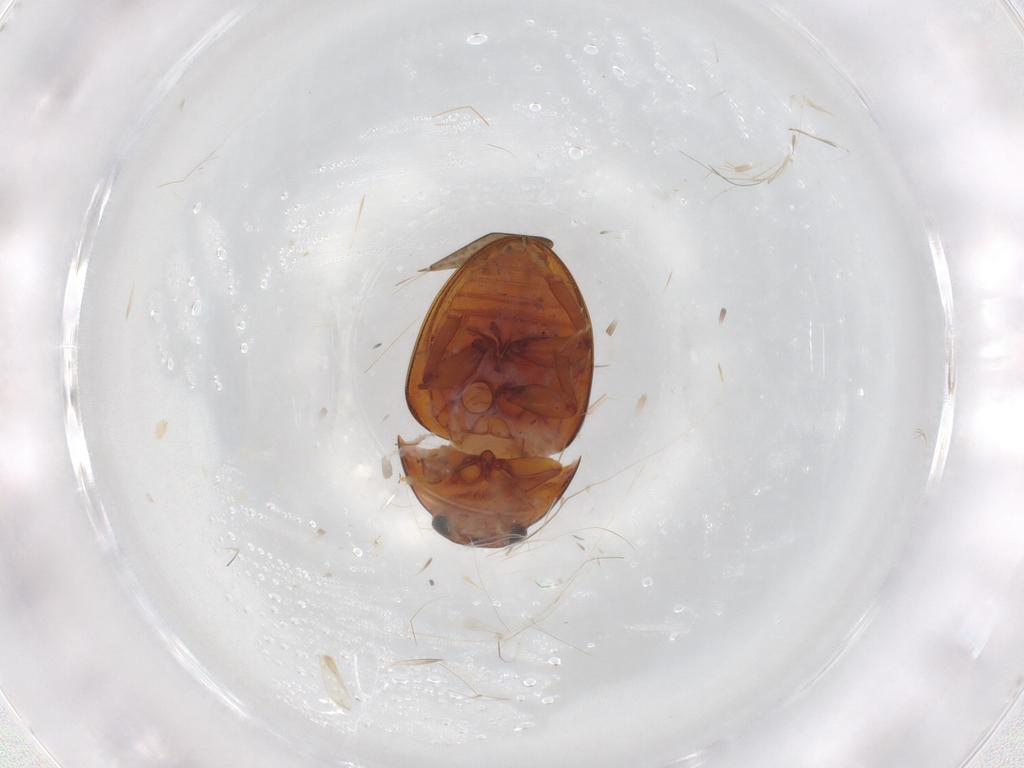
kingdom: Animalia
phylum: Arthropoda
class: Insecta
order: Coleoptera
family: Phalacridae
